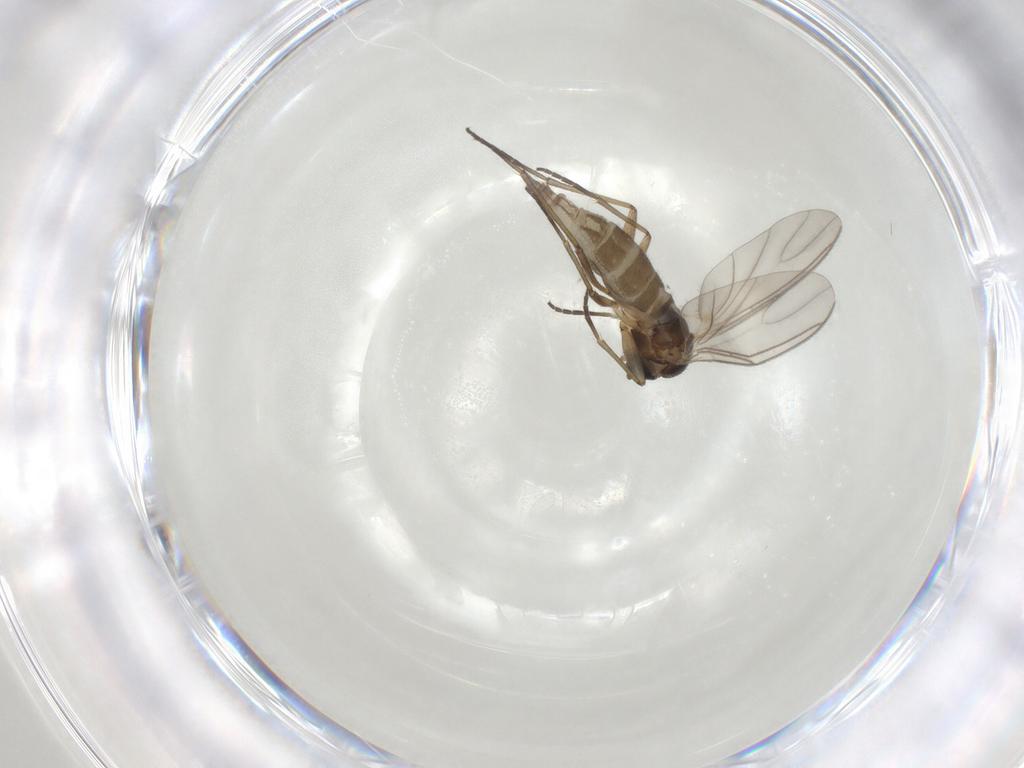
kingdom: Animalia
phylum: Arthropoda
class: Insecta
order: Diptera
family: Cecidomyiidae
